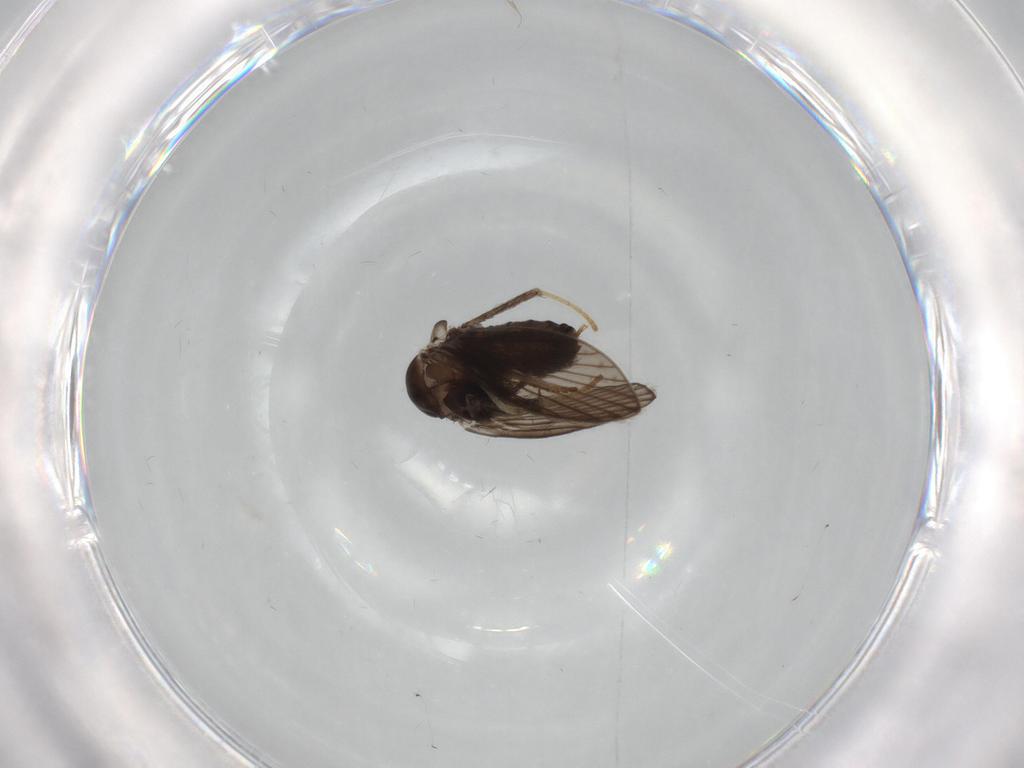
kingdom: Animalia
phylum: Arthropoda
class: Insecta
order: Diptera
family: Psychodidae
